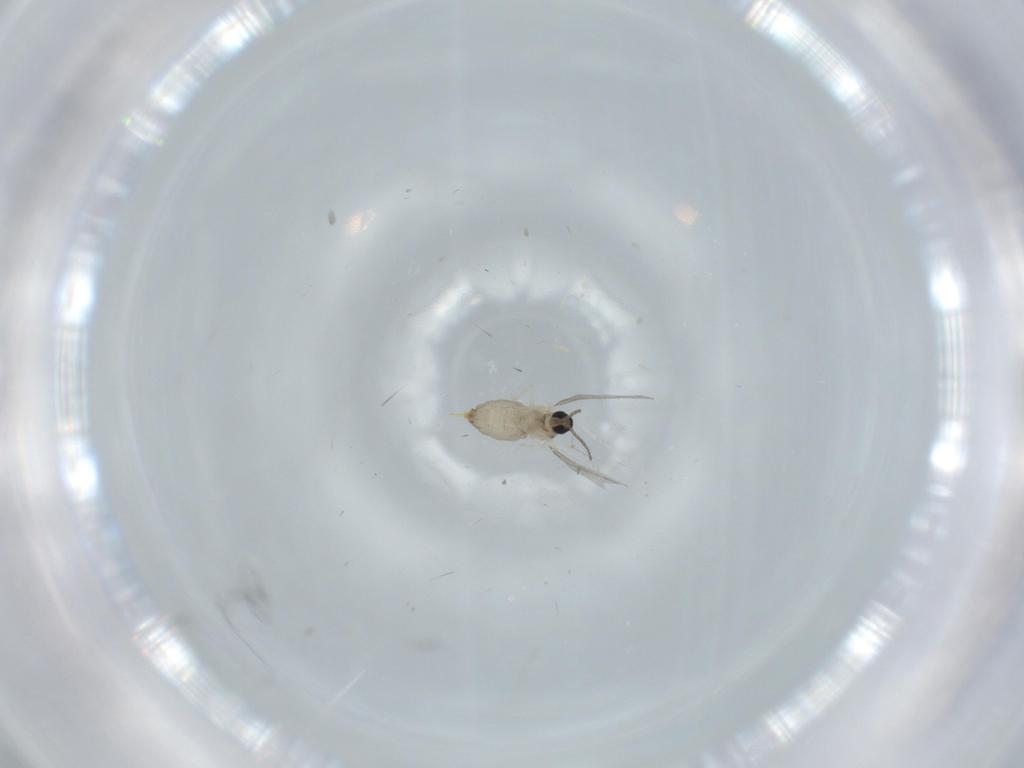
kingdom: Animalia
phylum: Arthropoda
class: Insecta
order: Diptera
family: Cecidomyiidae
